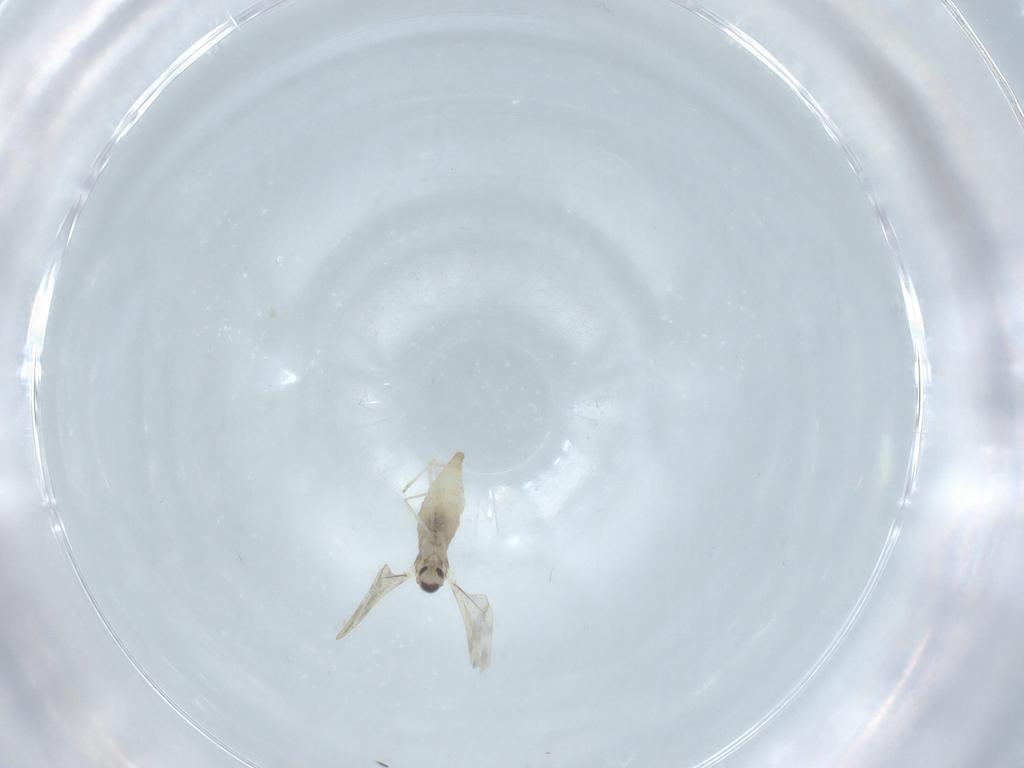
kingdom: Animalia
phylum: Arthropoda
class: Insecta
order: Diptera
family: Cecidomyiidae
